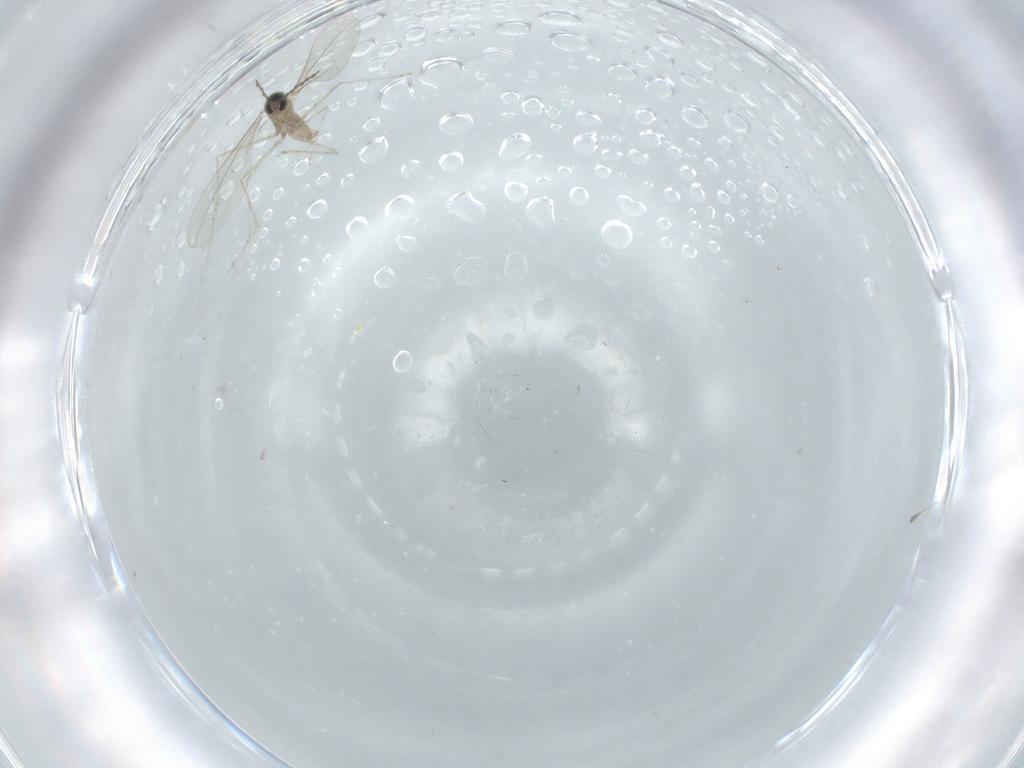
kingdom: Animalia
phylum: Arthropoda
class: Insecta
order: Diptera
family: Cecidomyiidae
